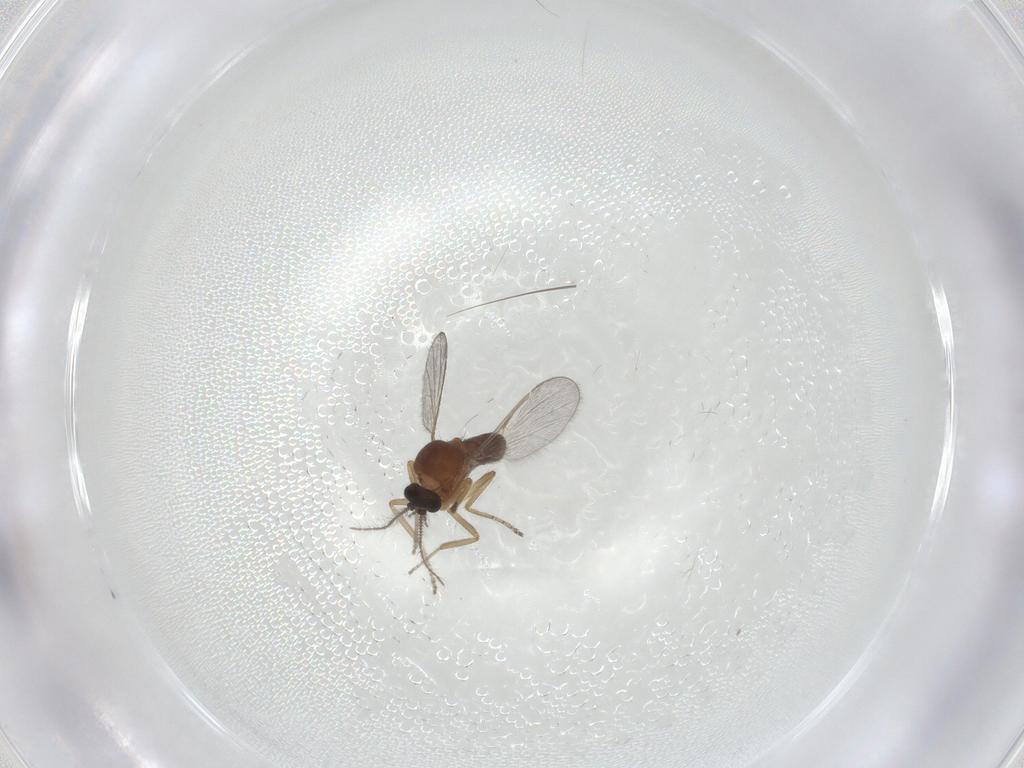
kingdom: Animalia
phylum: Arthropoda
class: Insecta
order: Diptera
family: Ceratopogonidae
